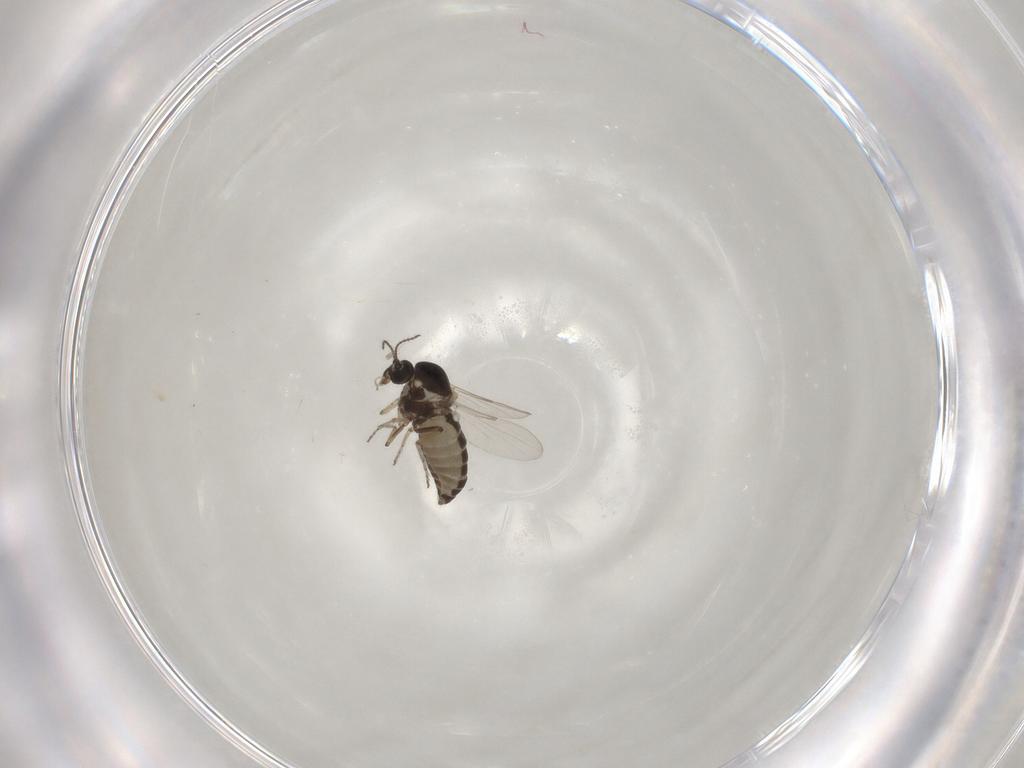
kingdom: Animalia
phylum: Arthropoda
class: Insecta
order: Diptera
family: Ceratopogonidae
